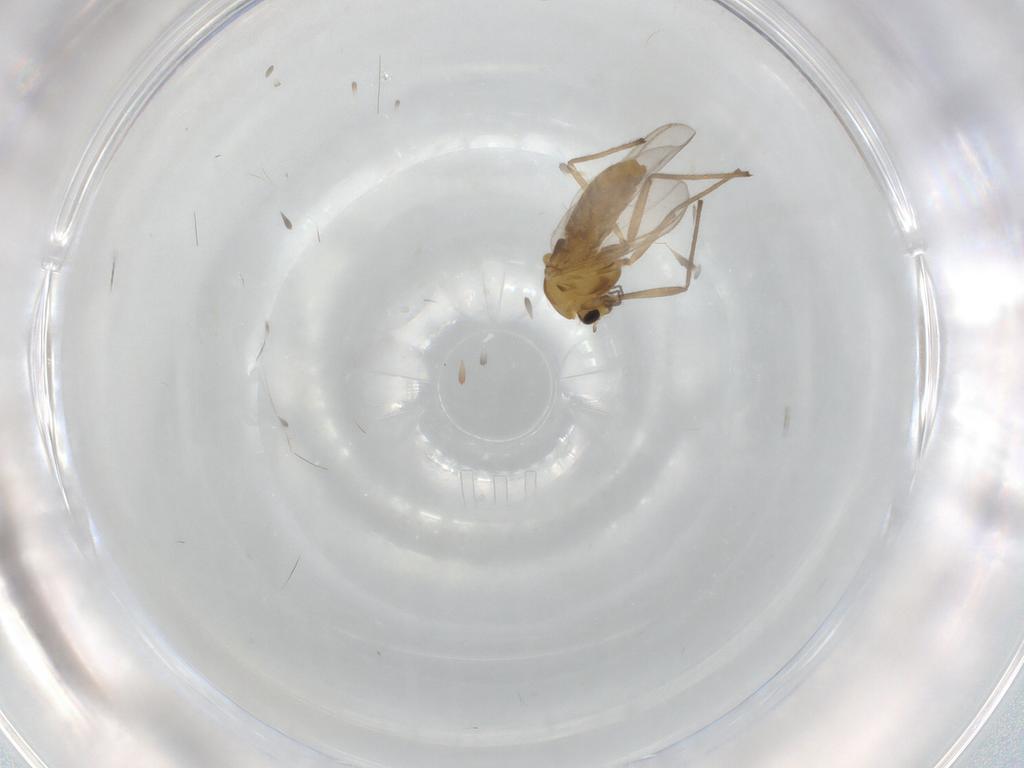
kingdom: Animalia
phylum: Arthropoda
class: Insecta
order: Diptera
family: Chironomidae
